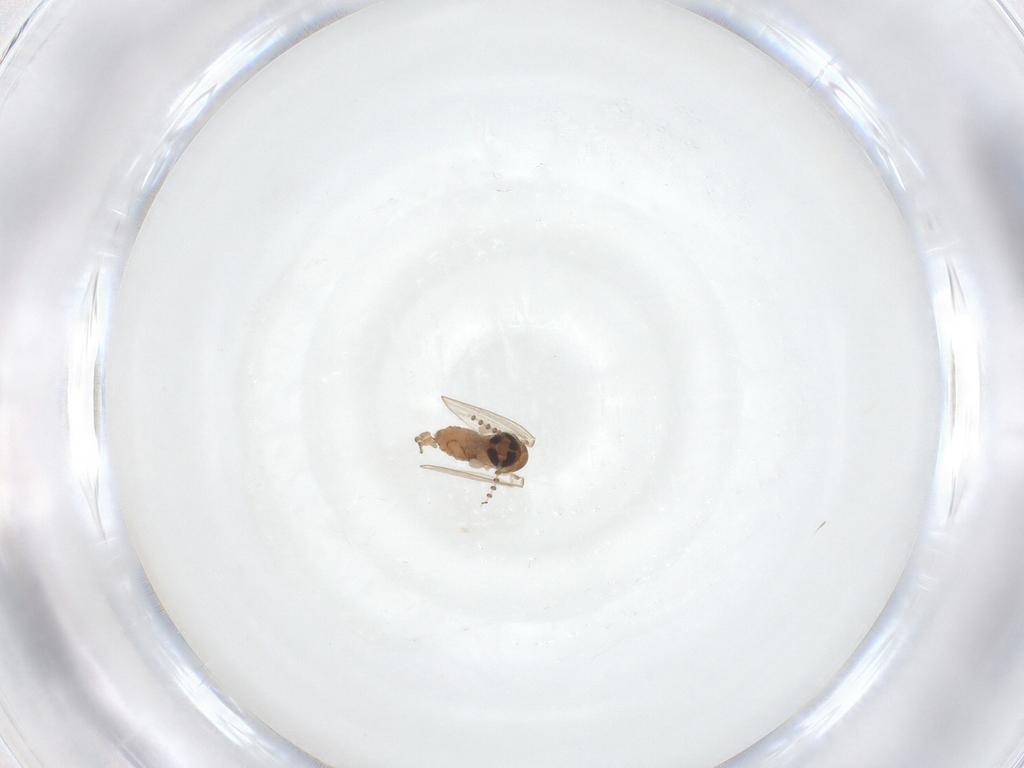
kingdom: Animalia
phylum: Arthropoda
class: Insecta
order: Diptera
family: Psychodidae
